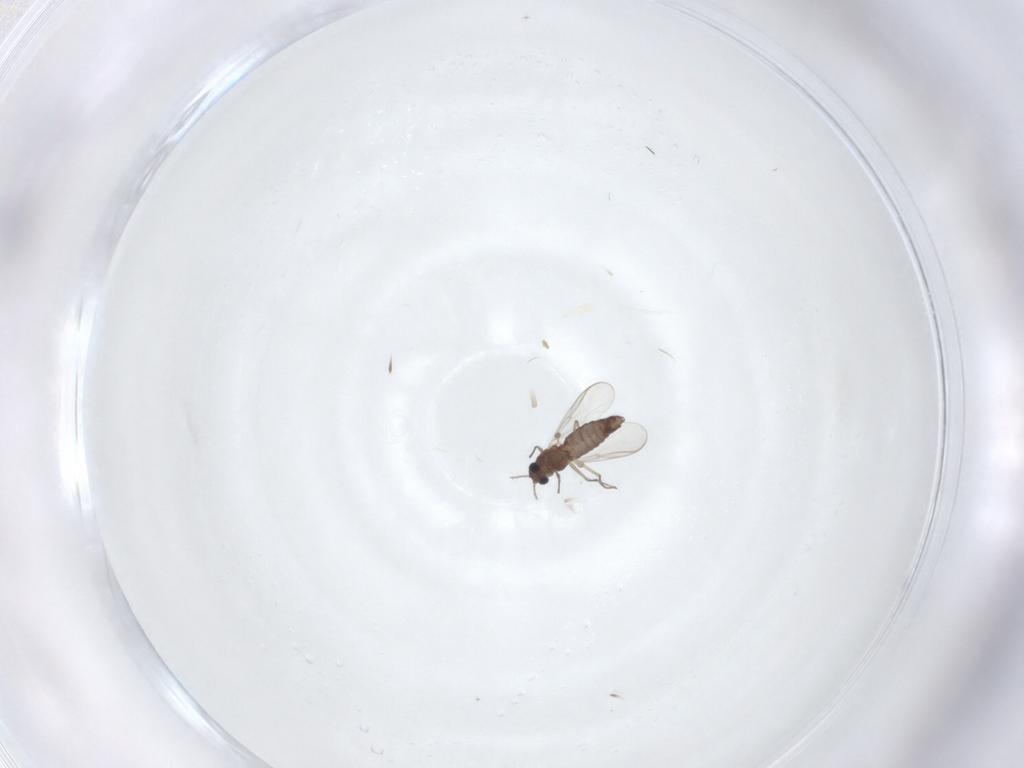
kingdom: Animalia
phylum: Arthropoda
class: Insecta
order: Diptera
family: Chironomidae
